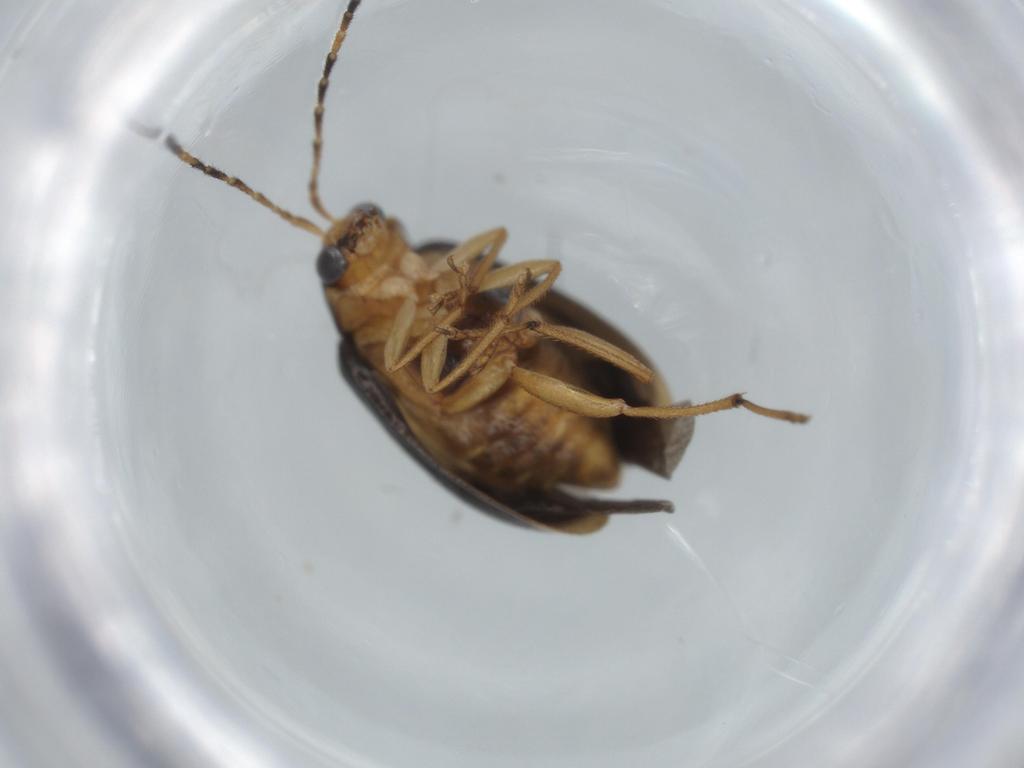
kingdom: Animalia
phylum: Arthropoda
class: Insecta
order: Coleoptera
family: Chrysomelidae
